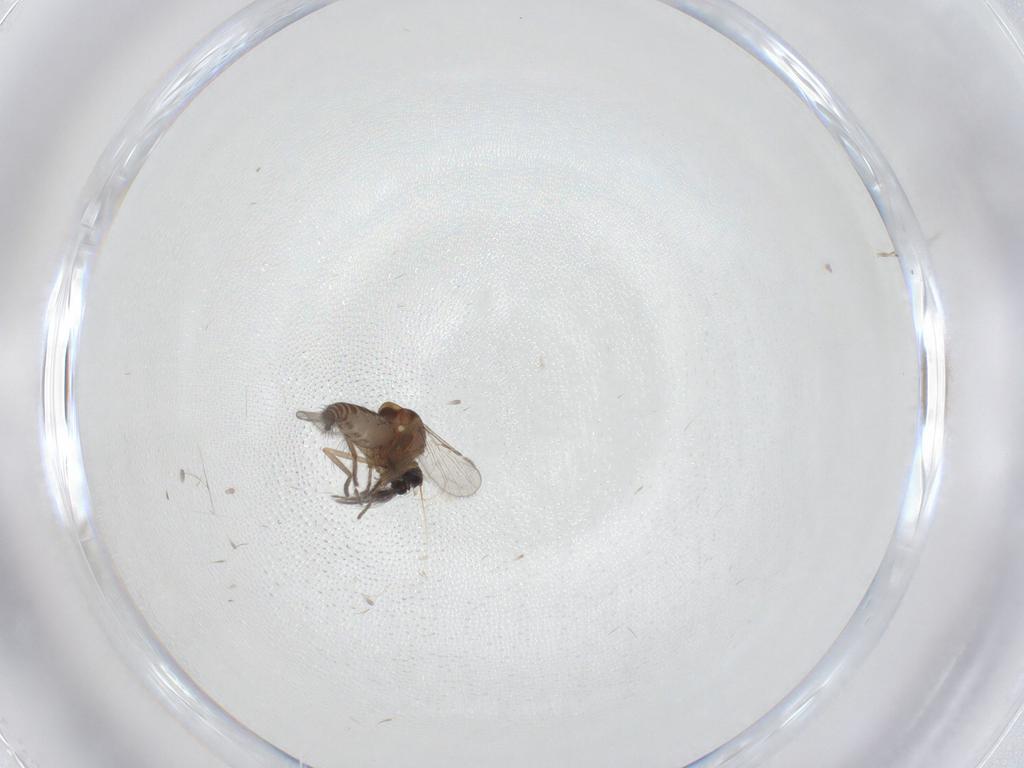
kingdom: Animalia
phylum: Arthropoda
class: Insecta
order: Diptera
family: Ceratopogonidae
